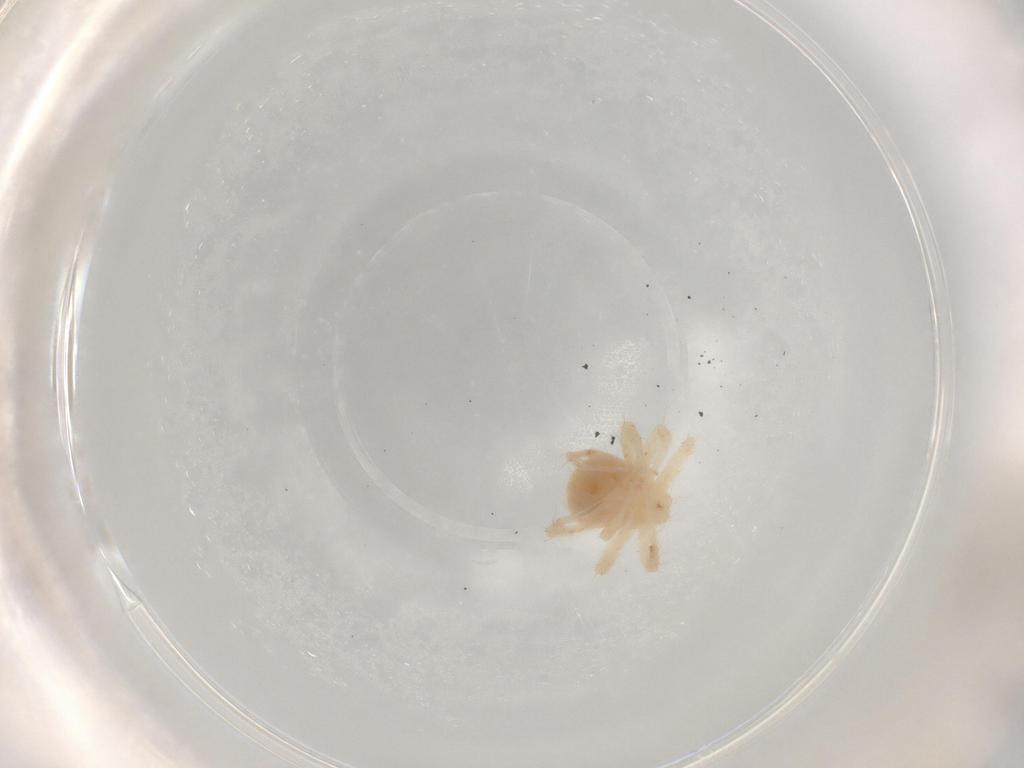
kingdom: Animalia
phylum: Arthropoda
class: Arachnida
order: Trombidiformes
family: Anystidae
